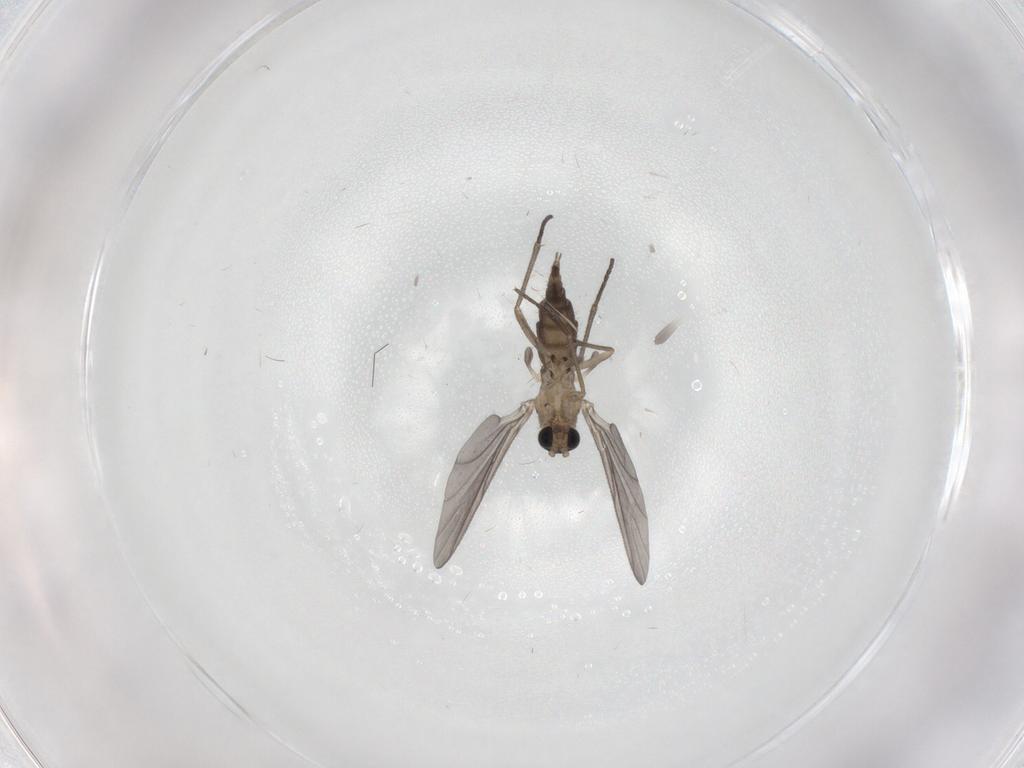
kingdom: Animalia
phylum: Arthropoda
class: Insecta
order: Diptera
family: Sciaridae
